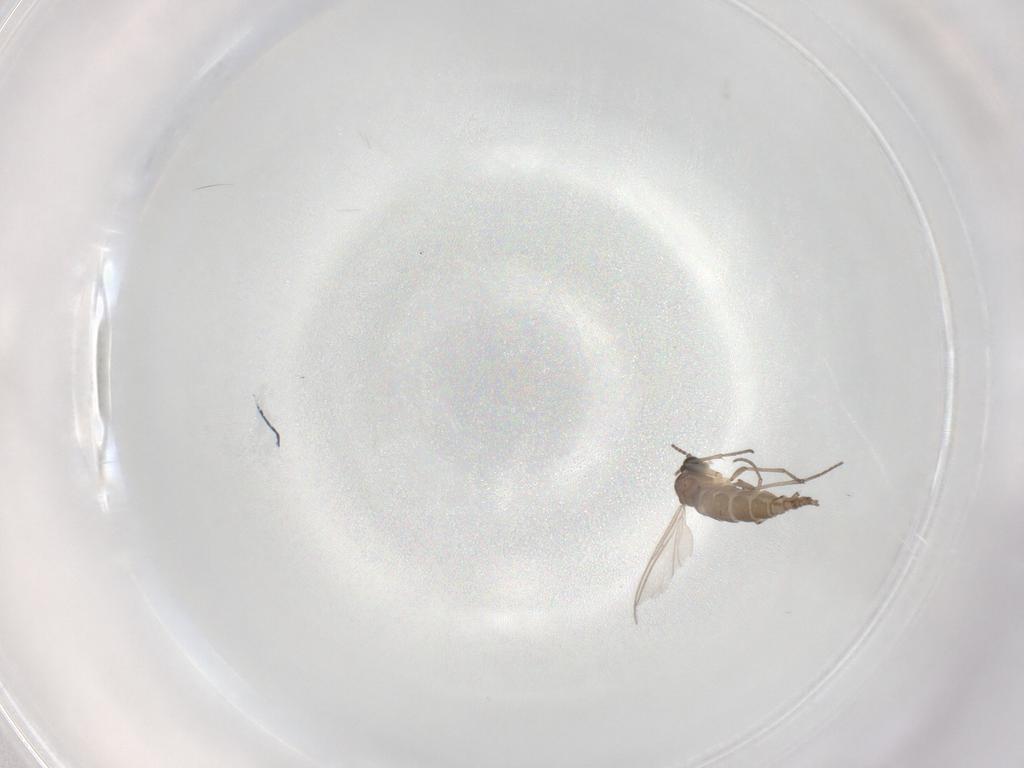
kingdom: Animalia
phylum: Arthropoda
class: Insecta
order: Diptera
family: Sciaridae
